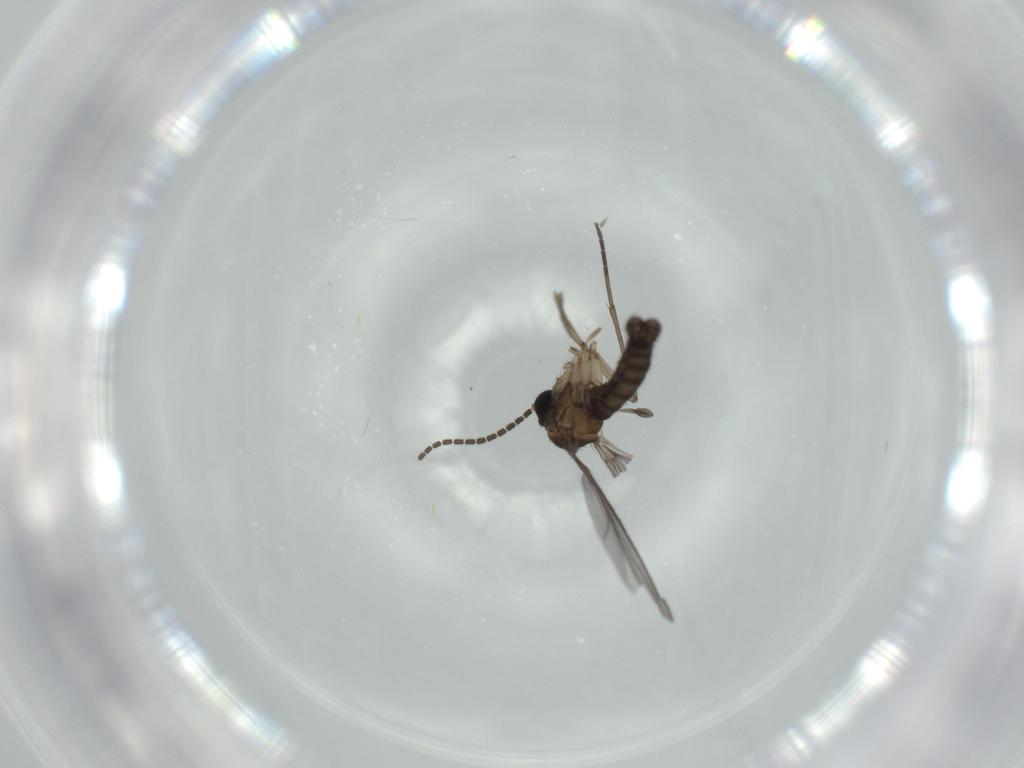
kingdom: Animalia
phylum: Arthropoda
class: Insecta
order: Diptera
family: Sciaridae
